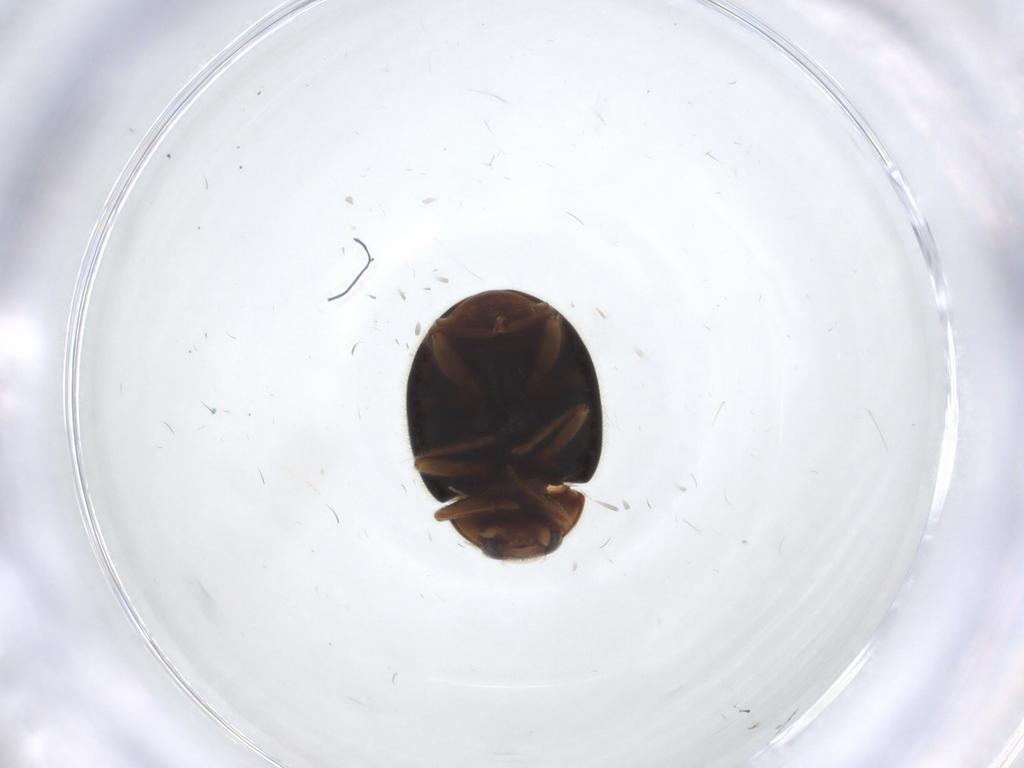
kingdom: Animalia
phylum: Arthropoda
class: Insecta
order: Coleoptera
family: Coccinellidae
